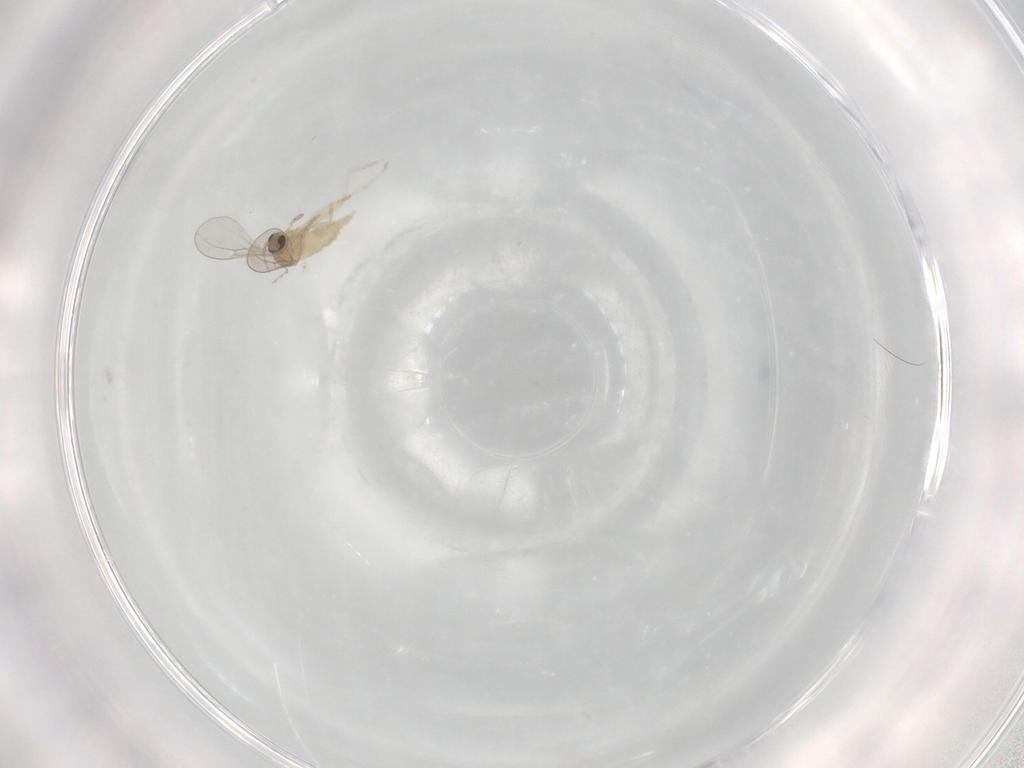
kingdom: Animalia
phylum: Arthropoda
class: Insecta
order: Diptera
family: Cecidomyiidae
